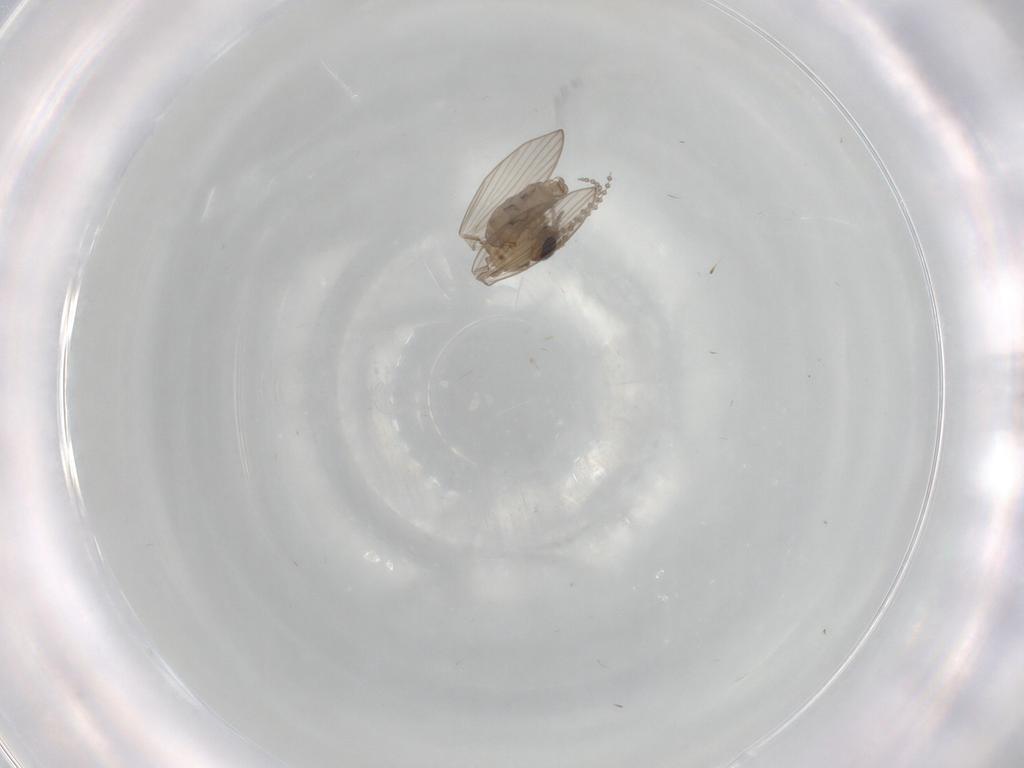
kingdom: Animalia
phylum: Arthropoda
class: Insecta
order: Diptera
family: Psychodidae
